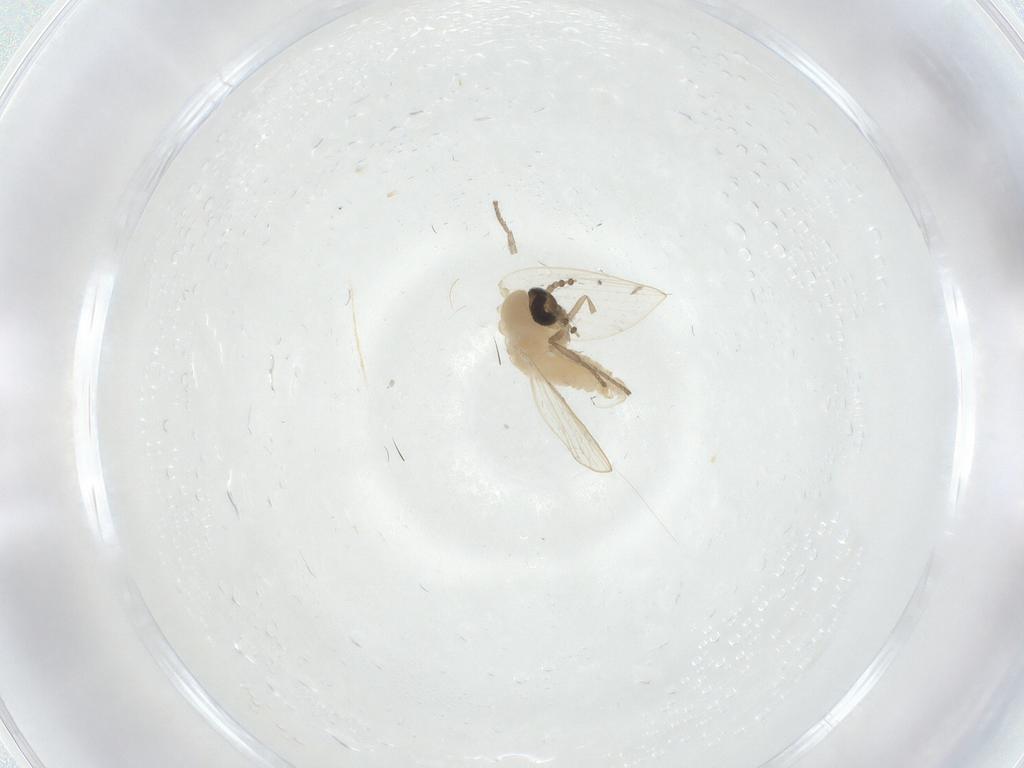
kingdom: Animalia
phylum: Arthropoda
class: Insecta
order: Diptera
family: Psychodidae
